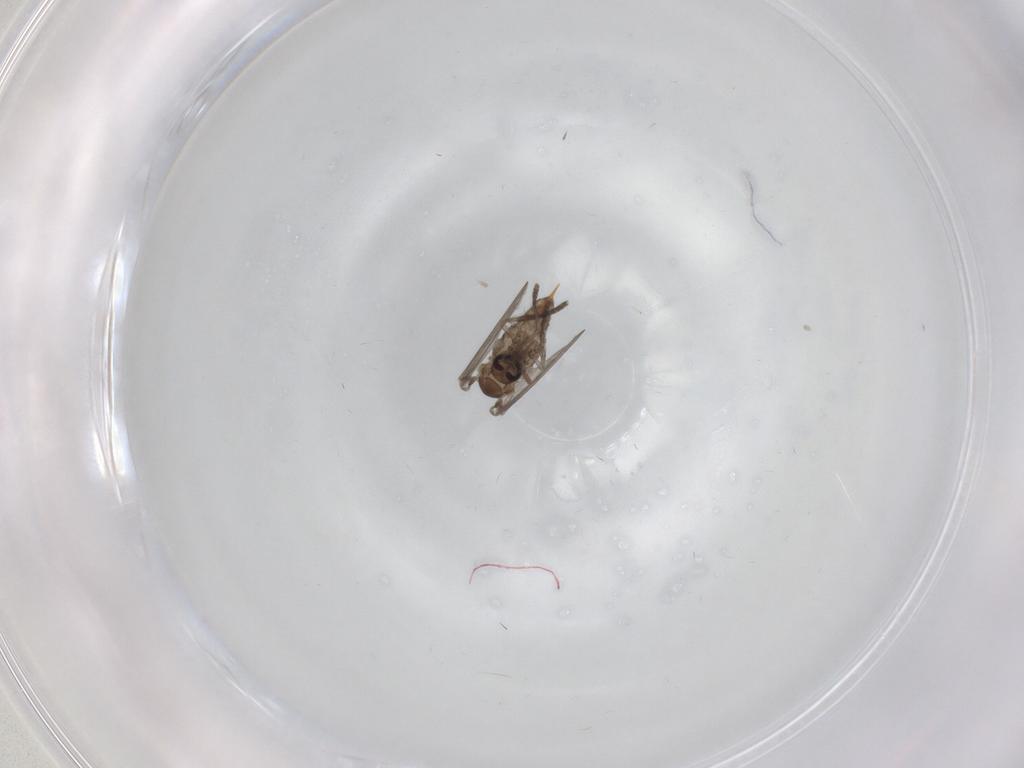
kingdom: Animalia
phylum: Arthropoda
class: Insecta
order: Diptera
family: Psychodidae
